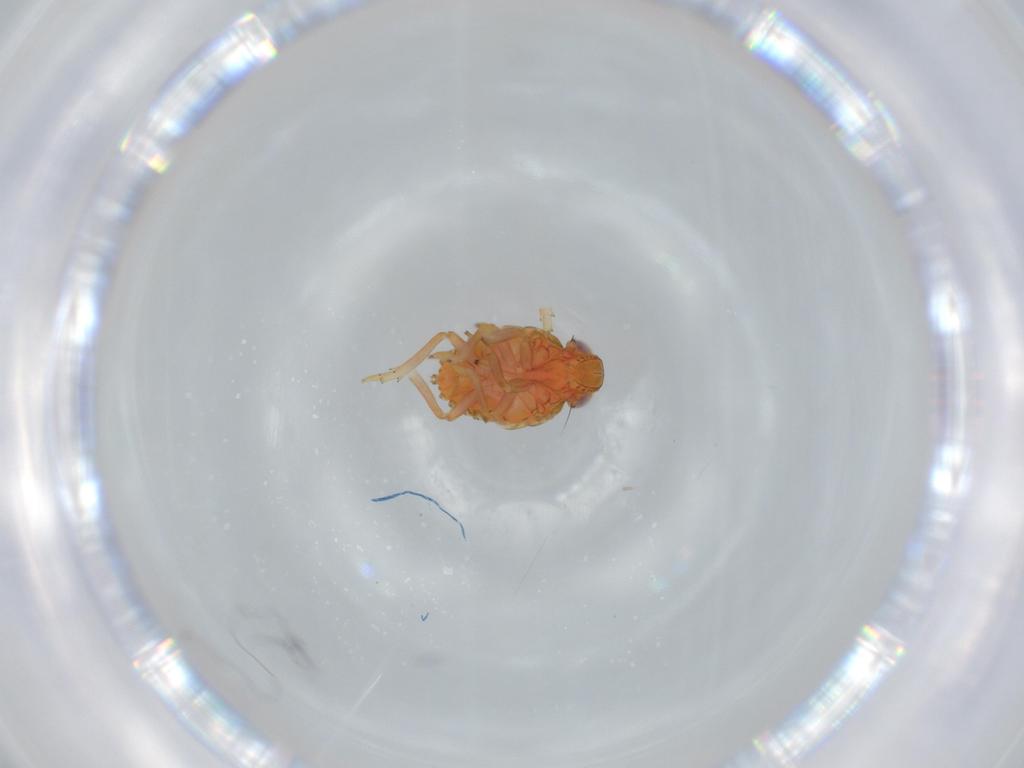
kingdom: Animalia
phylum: Arthropoda
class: Insecta
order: Hemiptera
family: Issidae
